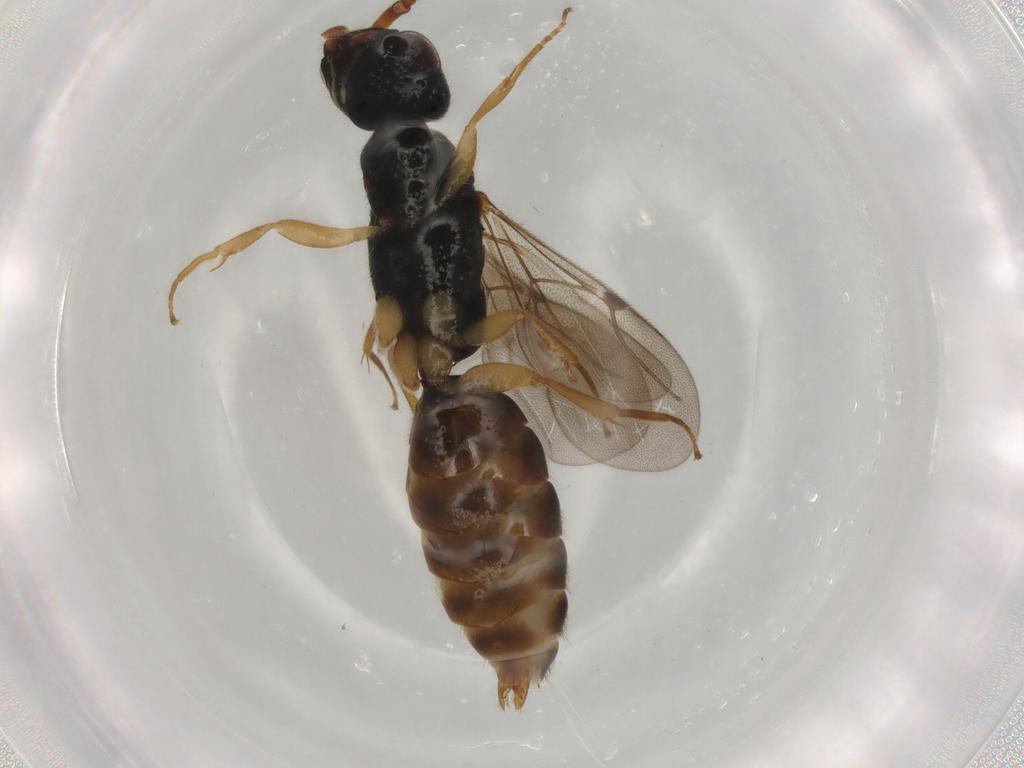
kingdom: Animalia
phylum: Arthropoda
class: Insecta
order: Hymenoptera
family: Bethylidae
